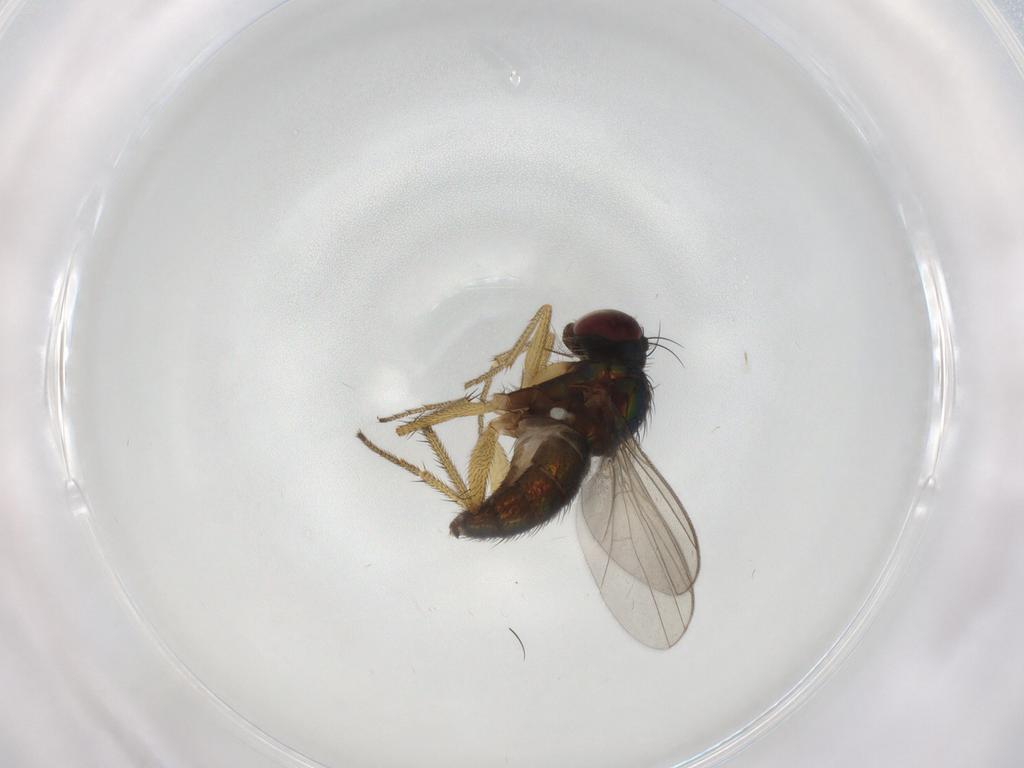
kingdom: Animalia
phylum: Arthropoda
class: Insecta
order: Diptera
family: Dolichopodidae
